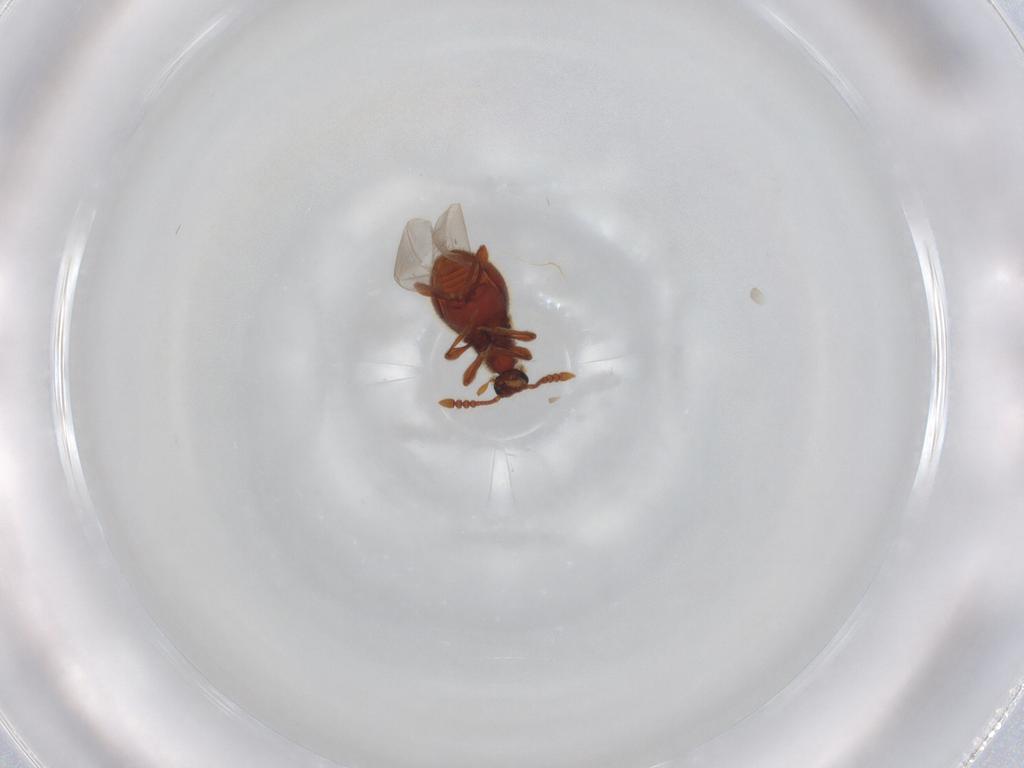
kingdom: Animalia
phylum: Arthropoda
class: Insecta
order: Coleoptera
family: Staphylinidae
